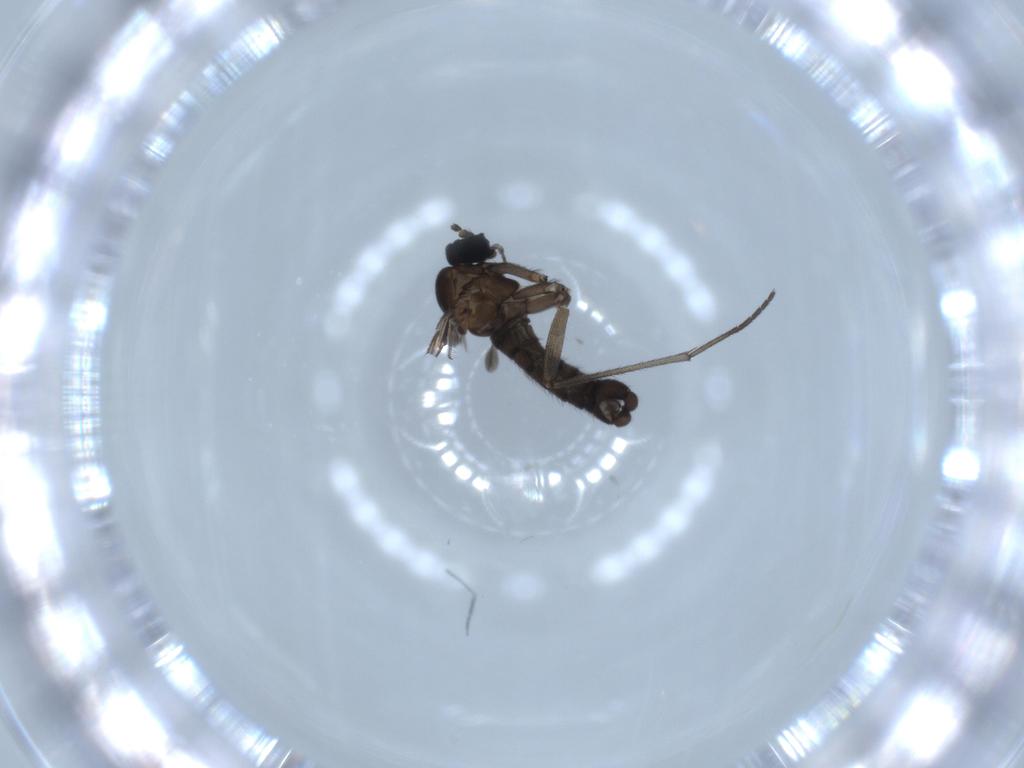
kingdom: Animalia
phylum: Arthropoda
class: Insecta
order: Diptera
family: Sciaridae
